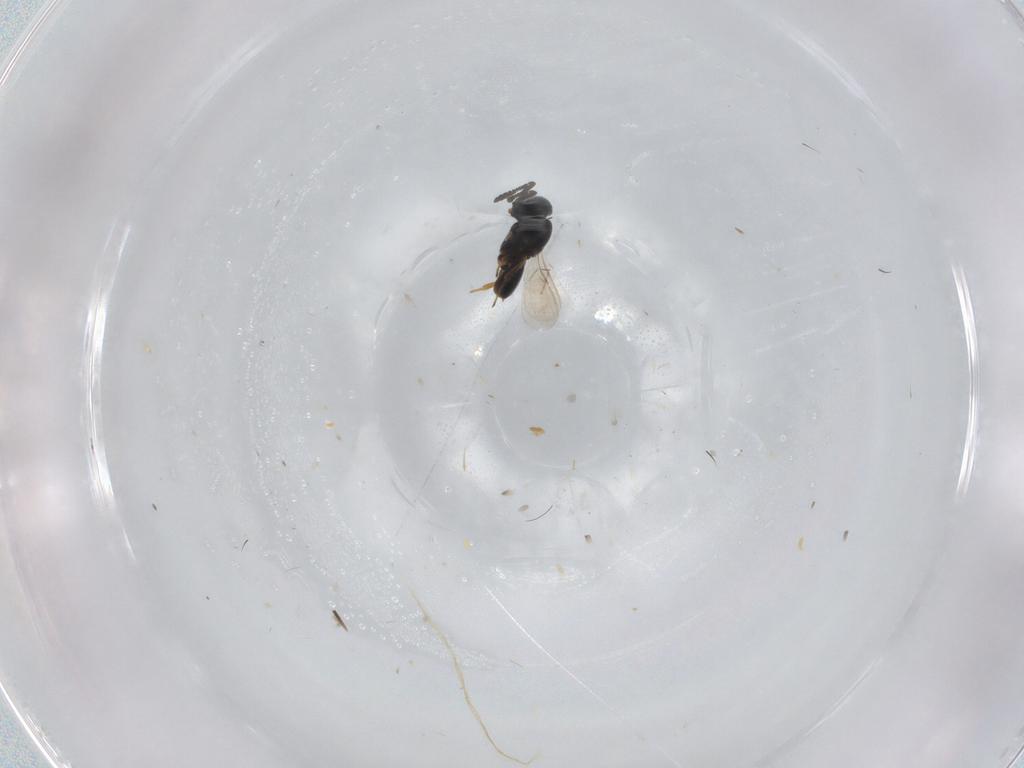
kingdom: Animalia
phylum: Arthropoda
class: Insecta
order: Hymenoptera
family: Scelionidae
